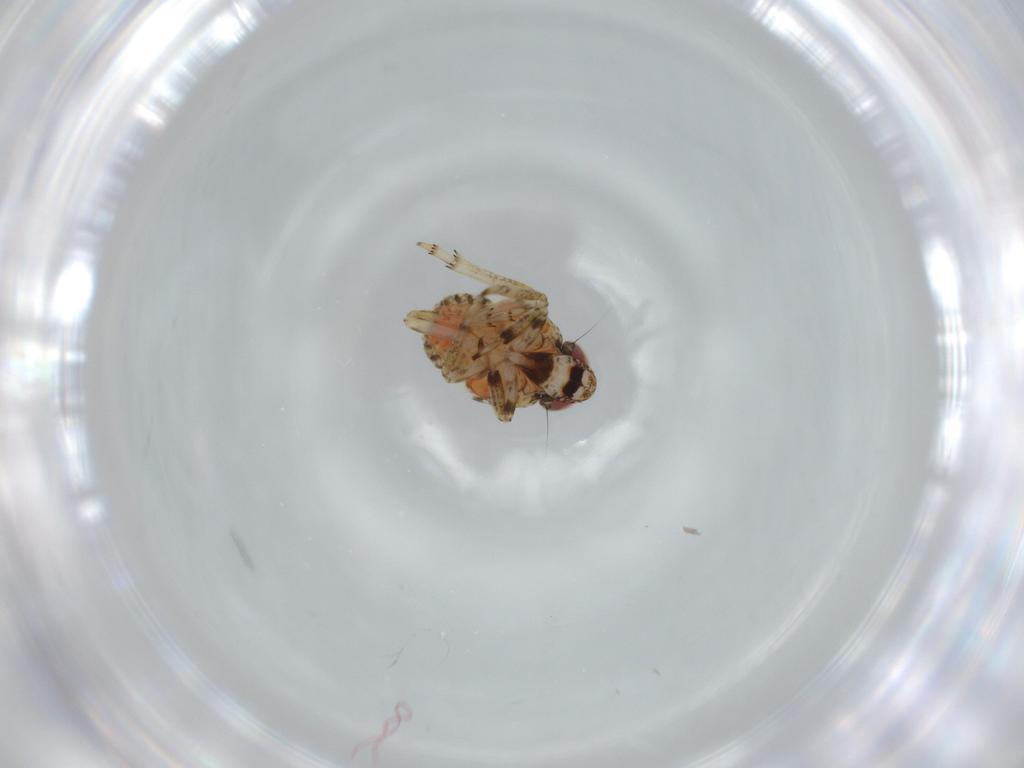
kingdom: Animalia
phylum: Arthropoda
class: Insecta
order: Hemiptera
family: Issidae
